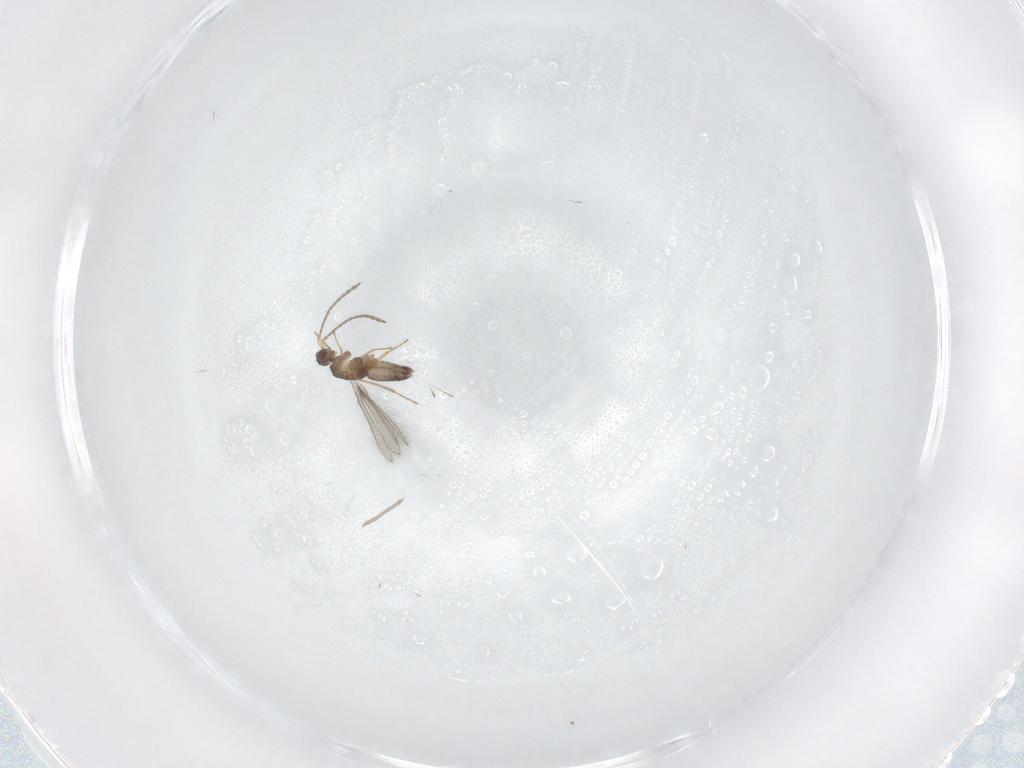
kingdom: Animalia
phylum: Arthropoda
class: Insecta
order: Hymenoptera
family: Mymaridae
